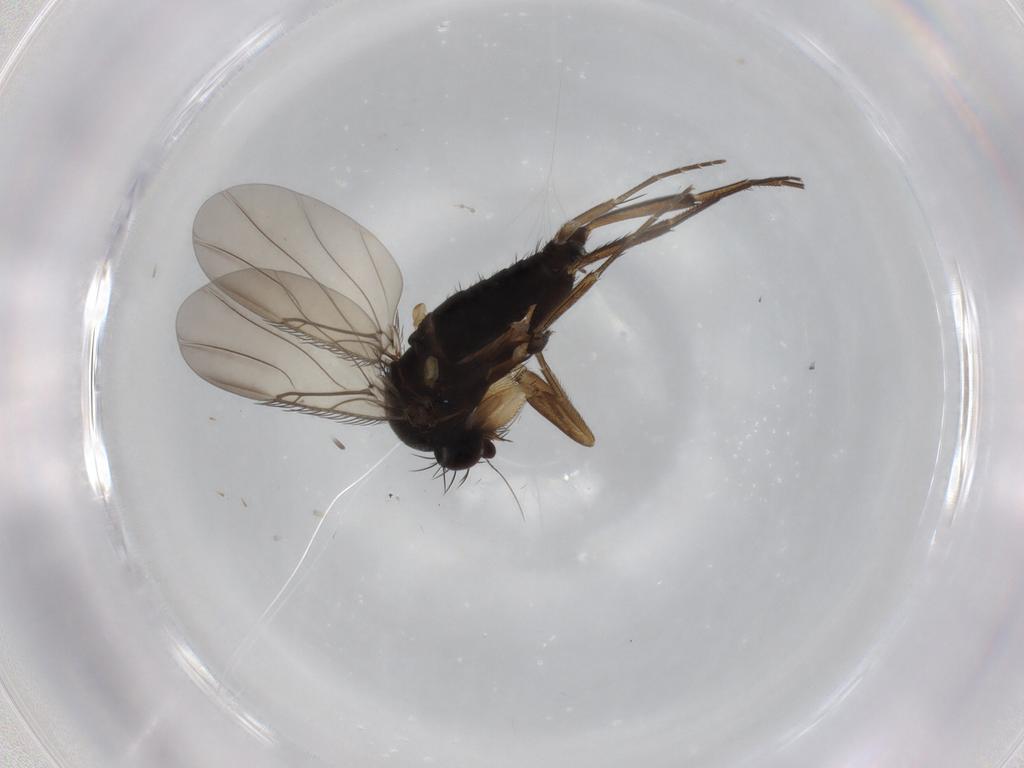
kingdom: Animalia
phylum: Arthropoda
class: Insecta
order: Diptera
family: Phoridae
